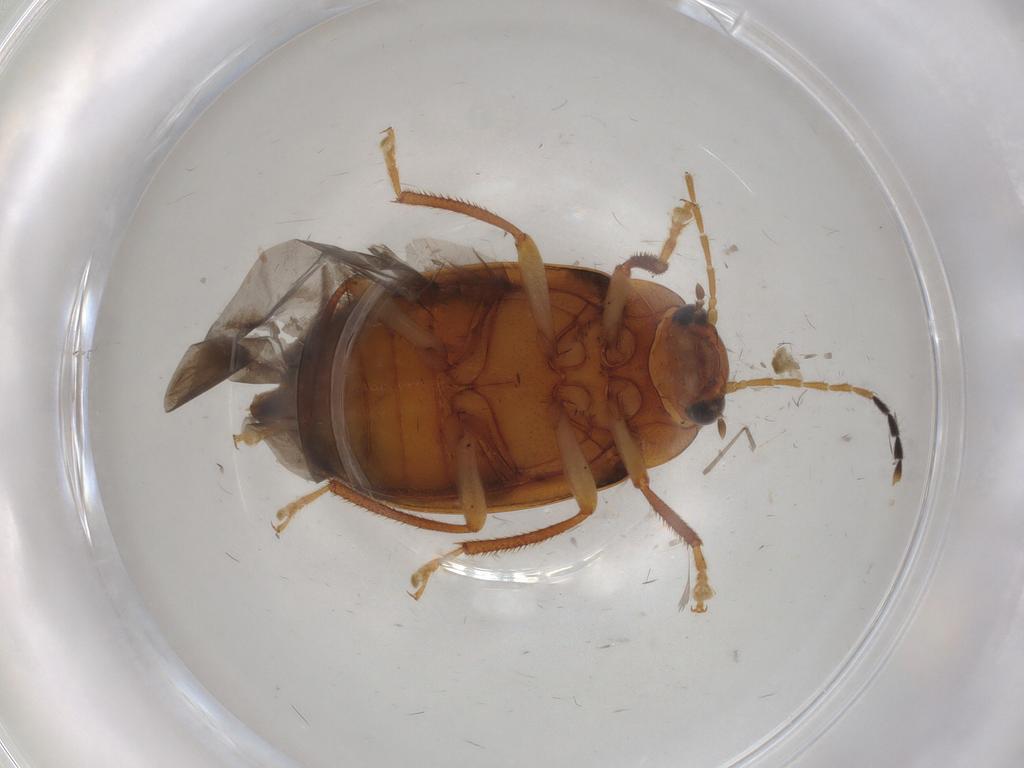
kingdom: Animalia
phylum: Arthropoda
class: Insecta
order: Coleoptera
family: Ptilodactylidae
